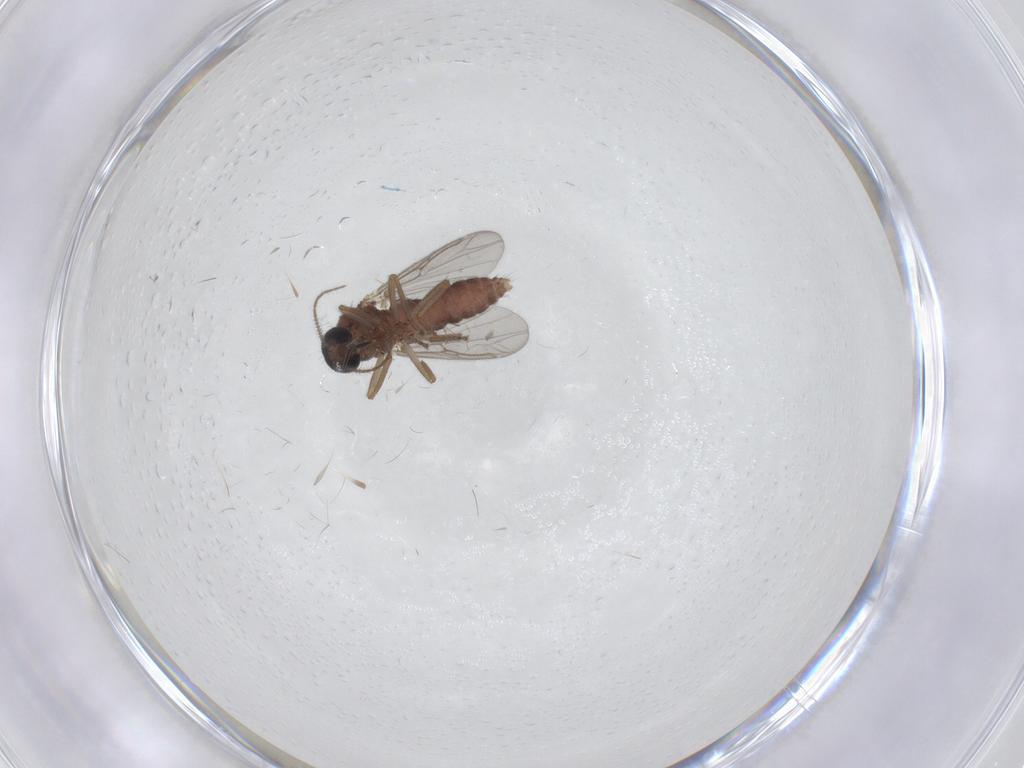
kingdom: Animalia
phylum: Arthropoda
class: Insecta
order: Diptera
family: Ceratopogonidae
